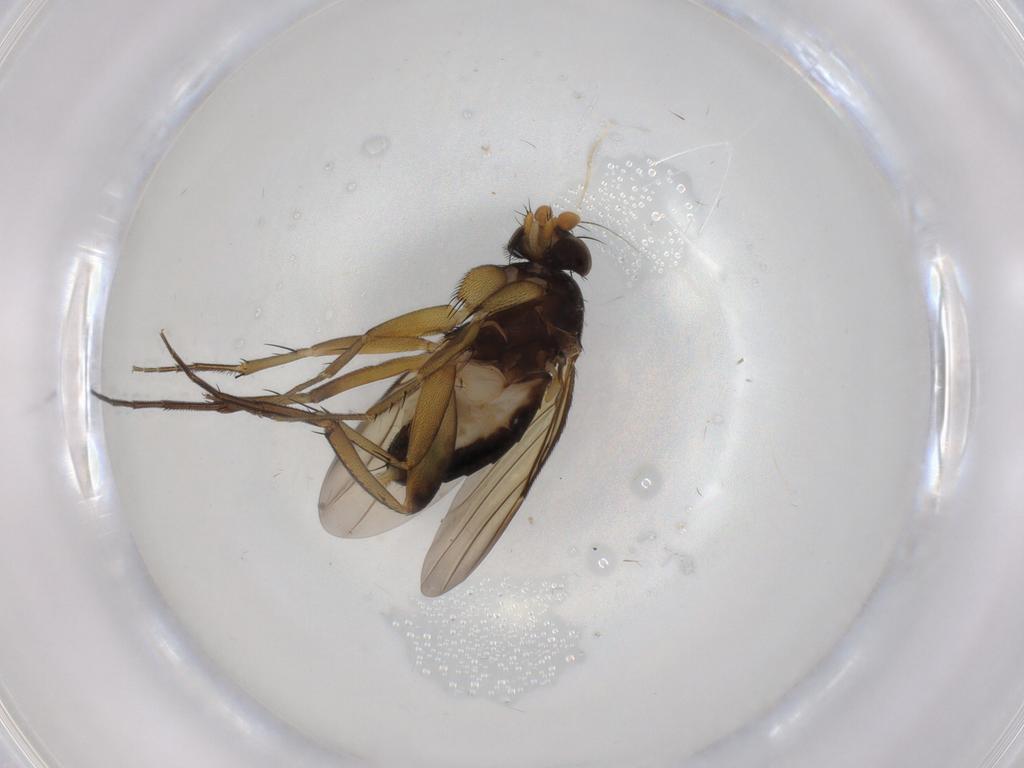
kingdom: Animalia
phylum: Arthropoda
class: Insecta
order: Diptera
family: Phoridae
